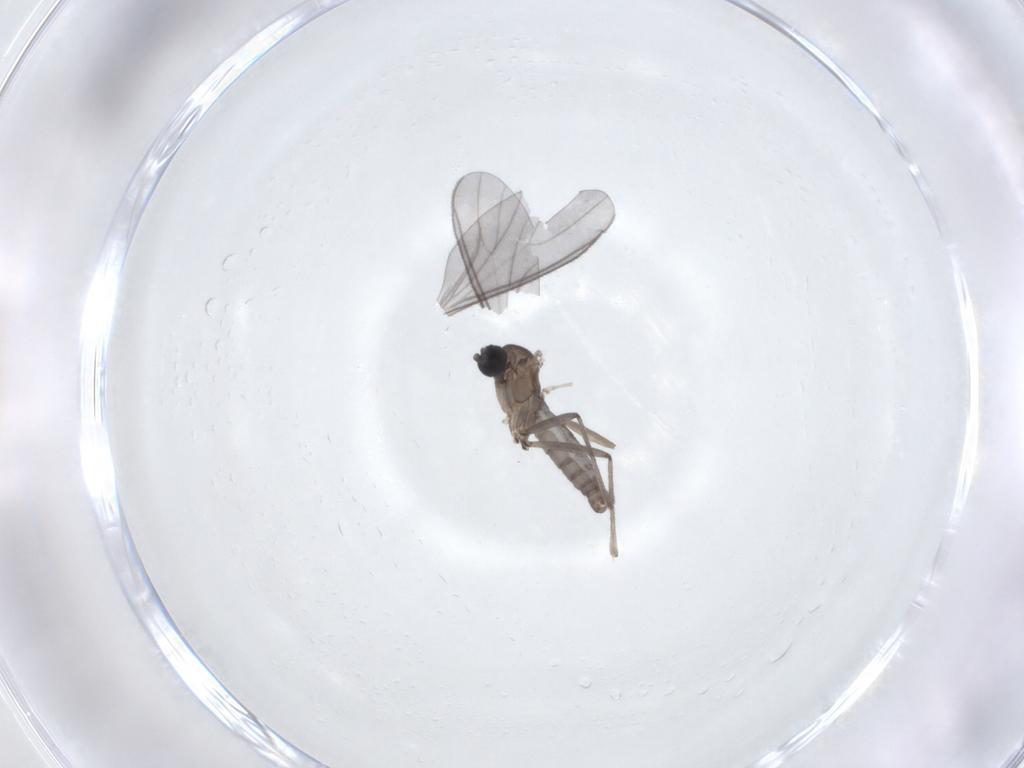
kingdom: Animalia
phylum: Arthropoda
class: Insecta
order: Diptera
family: Sciaridae
